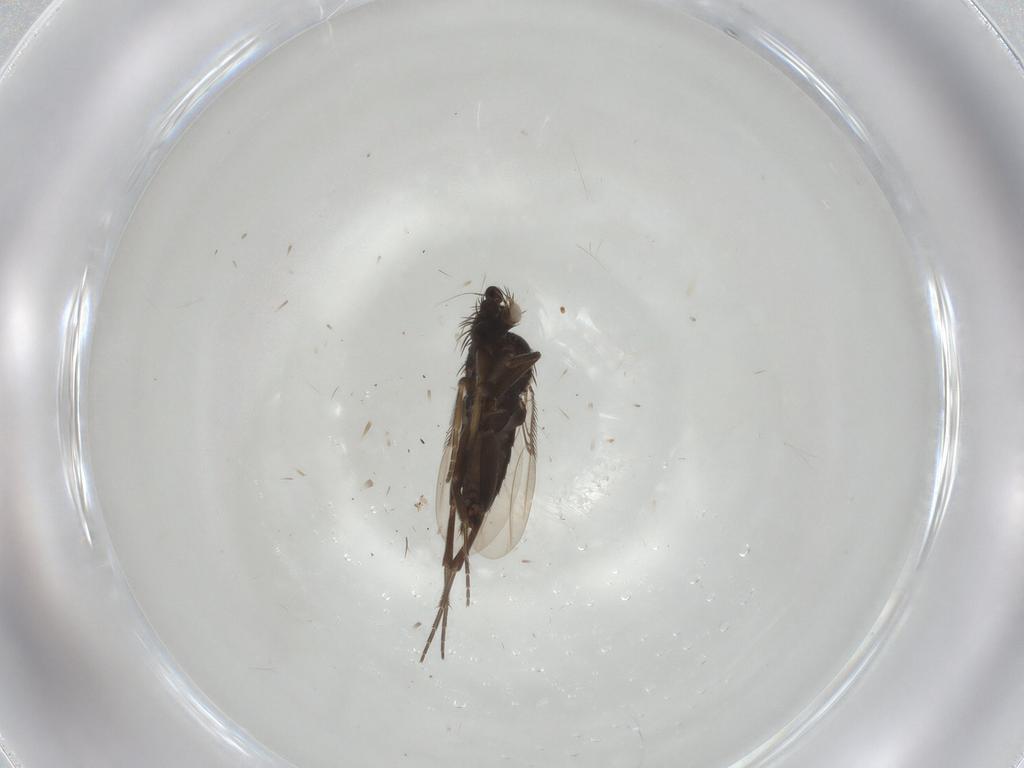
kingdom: Animalia
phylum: Arthropoda
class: Insecta
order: Diptera
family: Phoridae
